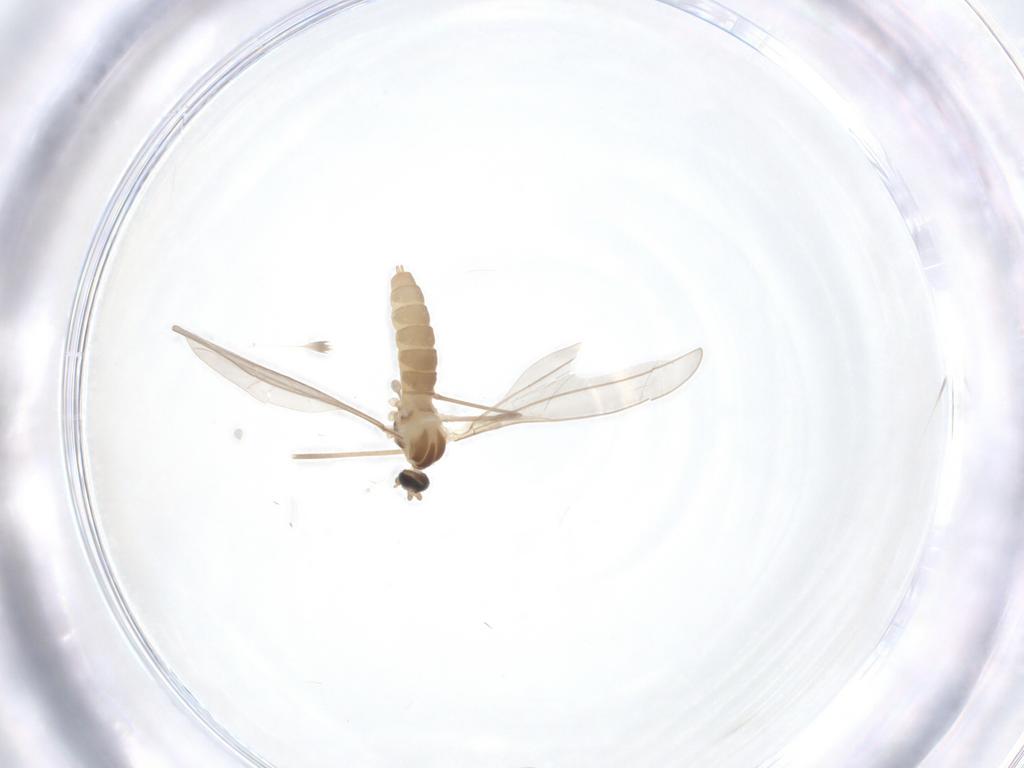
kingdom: Animalia
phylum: Arthropoda
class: Insecta
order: Diptera
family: Cecidomyiidae
